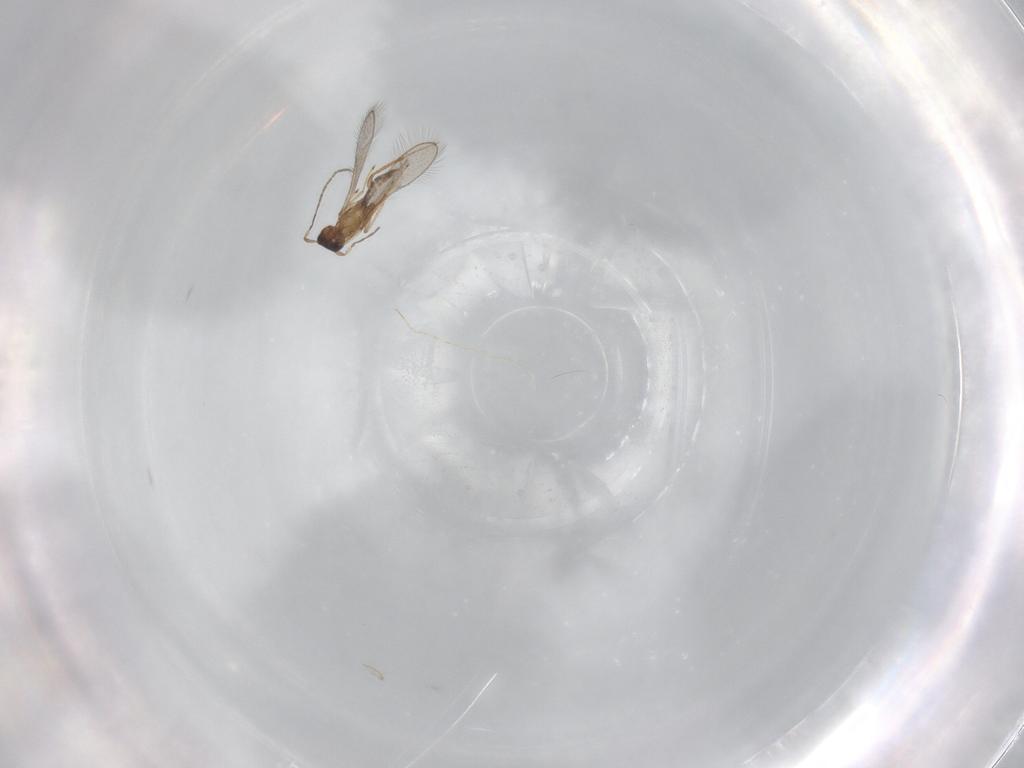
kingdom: Animalia
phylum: Arthropoda
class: Insecta
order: Hymenoptera
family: Mymaridae
